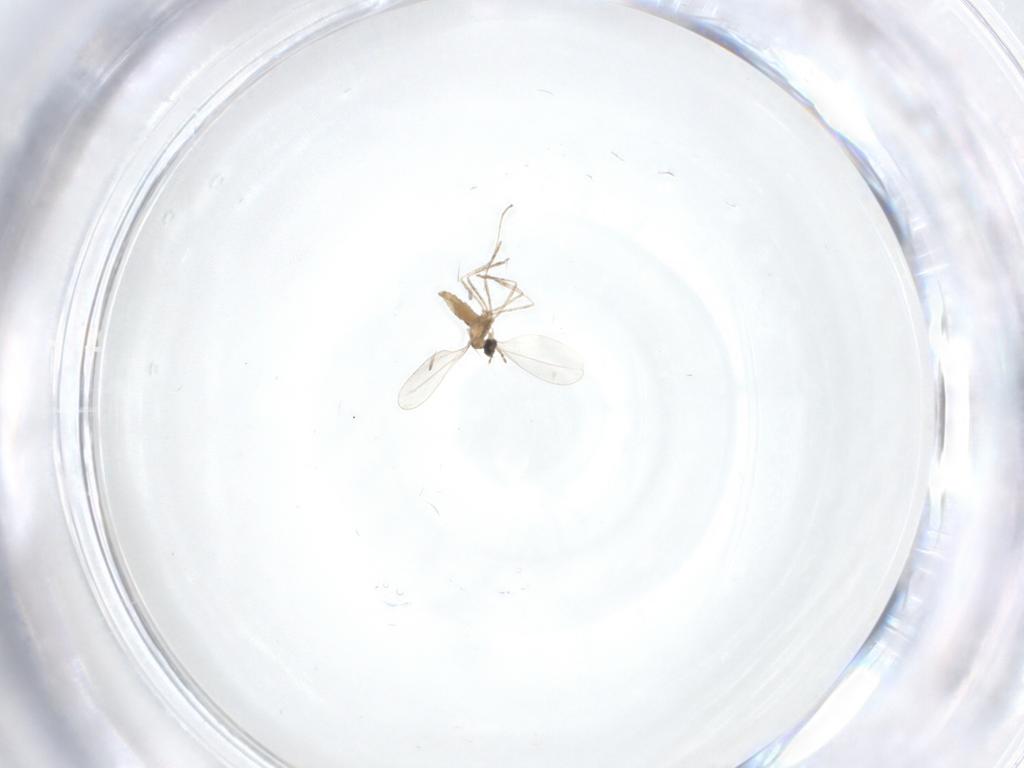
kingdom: Animalia
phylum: Arthropoda
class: Insecta
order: Diptera
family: Cecidomyiidae
